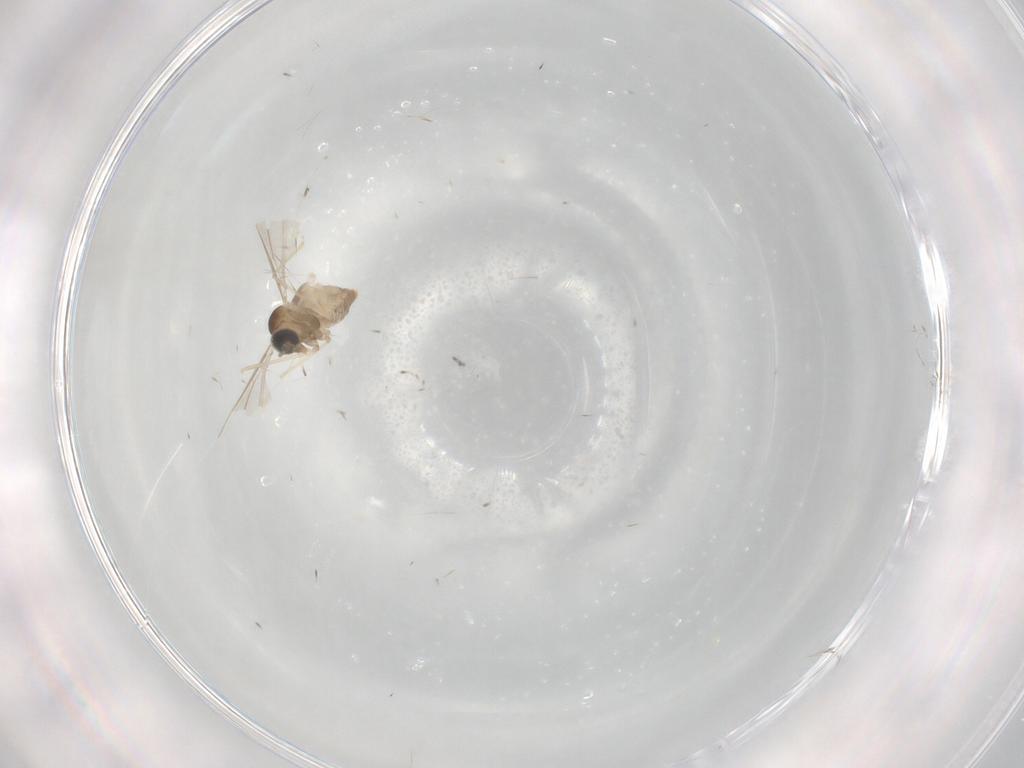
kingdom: Animalia
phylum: Arthropoda
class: Insecta
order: Diptera
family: Cecidomyiidae
